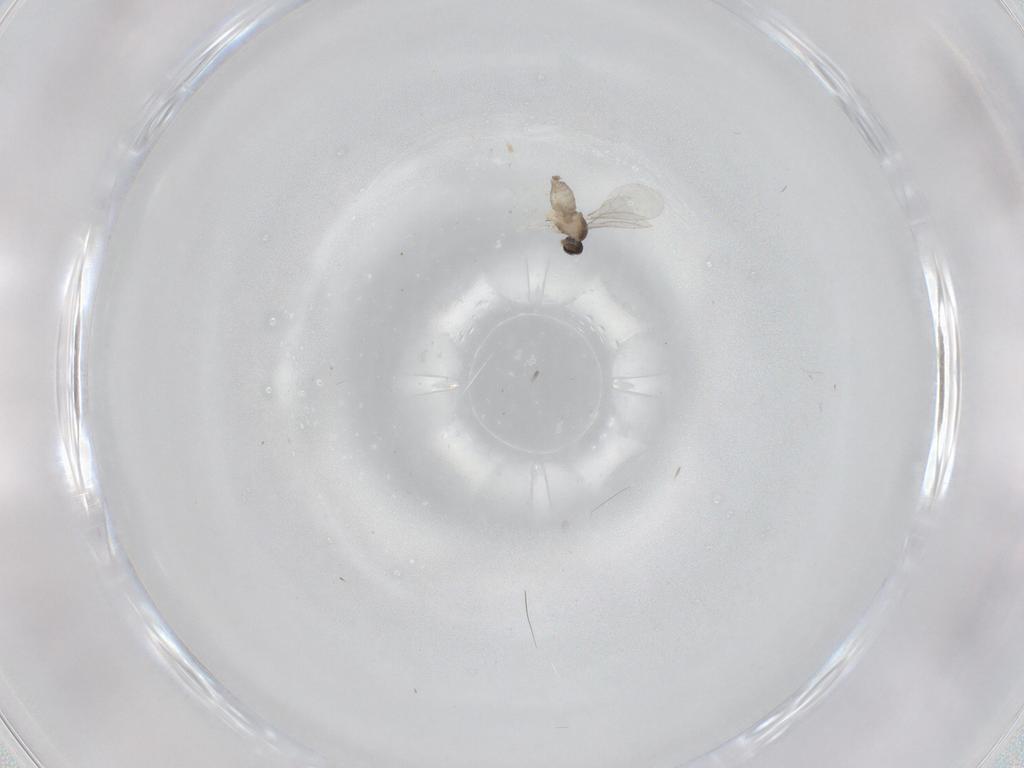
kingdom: Animalia
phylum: Arthropoda
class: Insecta
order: Diptera
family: Cecidomyiidae
